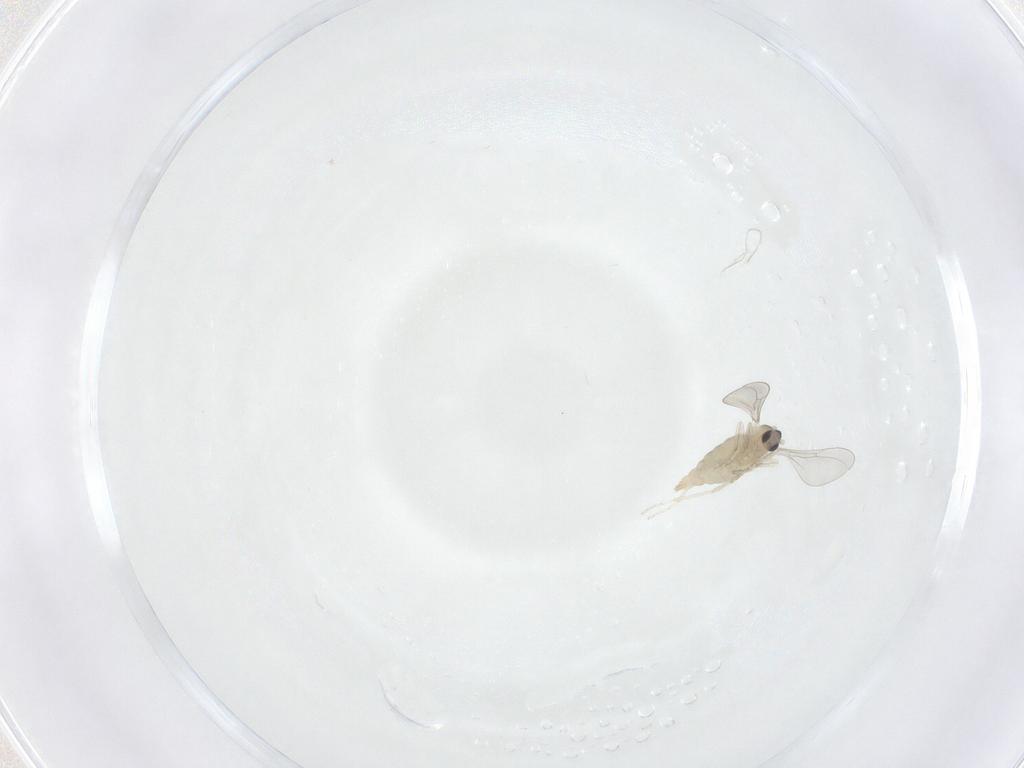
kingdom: Animalia
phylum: Arthropoda
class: Insecta
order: Diptera
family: Cecidomyiidae
